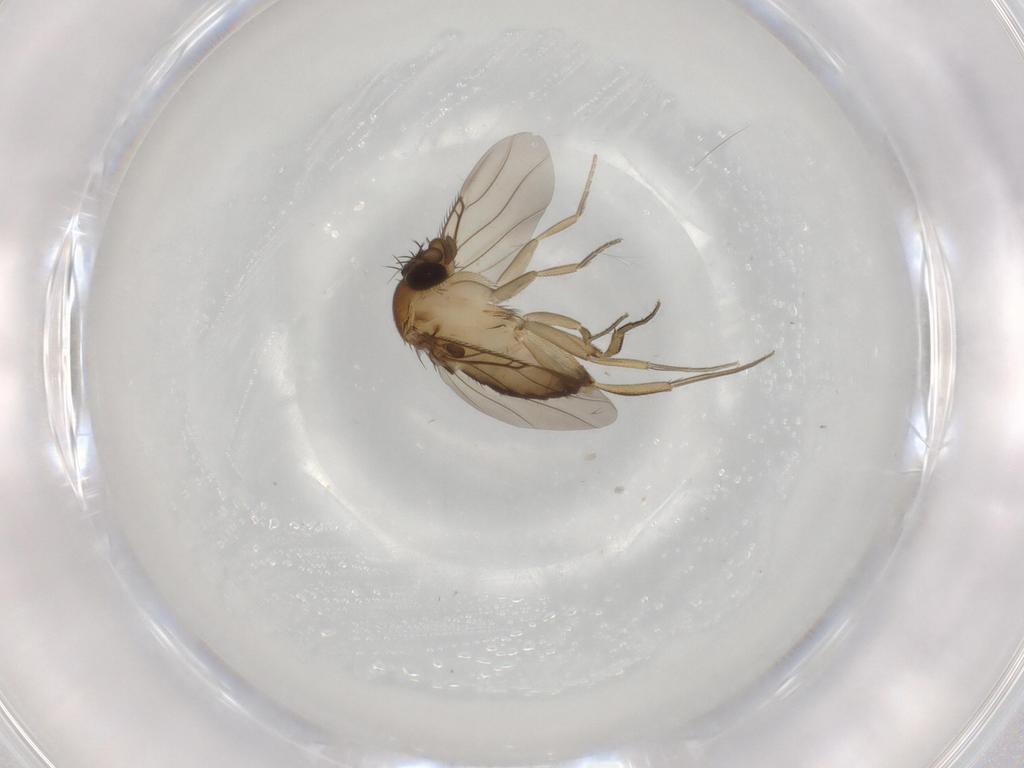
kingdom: Animalia
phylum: Arthropoda
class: Insecta
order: Diptera
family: Phoridae
